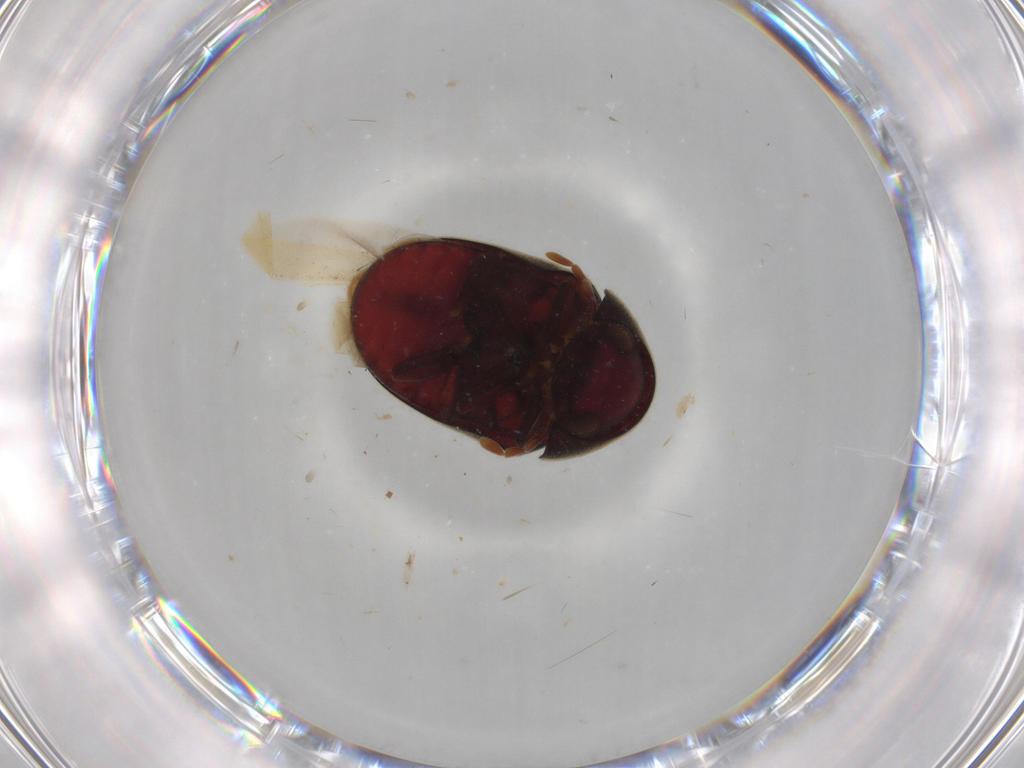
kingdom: Animalia
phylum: Arthropoda
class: Insecta
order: Coleoptera
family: Ptinidae
